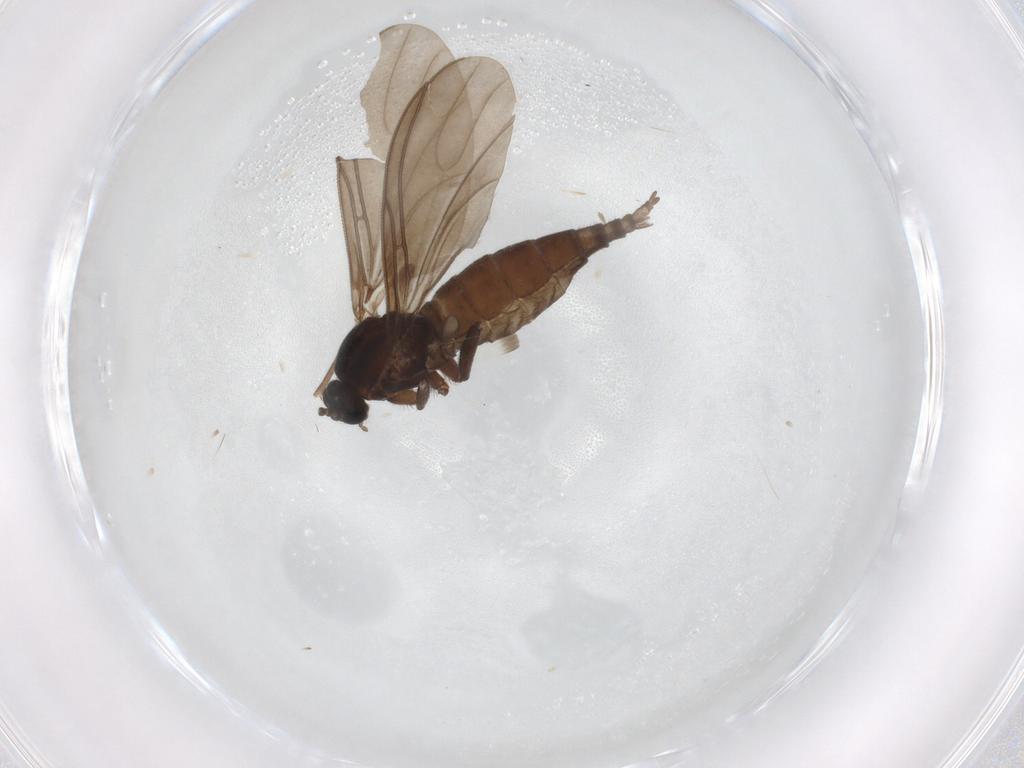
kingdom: Animalia
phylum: Arthropoda
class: Insecta
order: Diptera
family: Sciaridae
